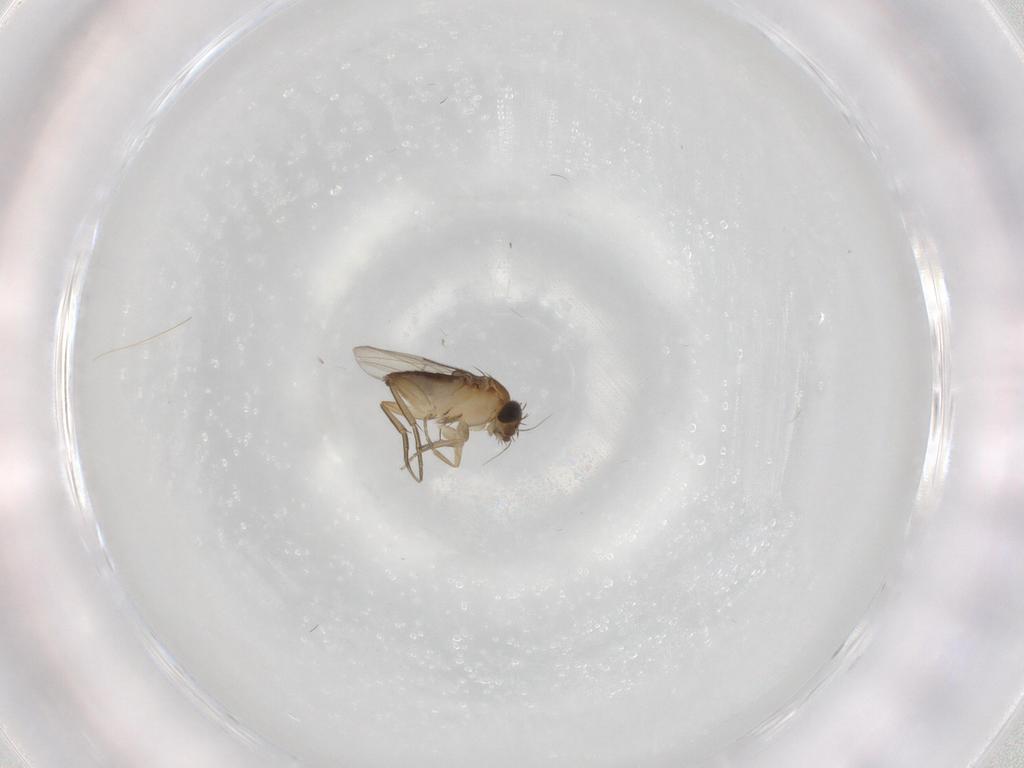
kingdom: Animalia
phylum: Arthropoda
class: Insecta
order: Diptera
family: Phoridae
